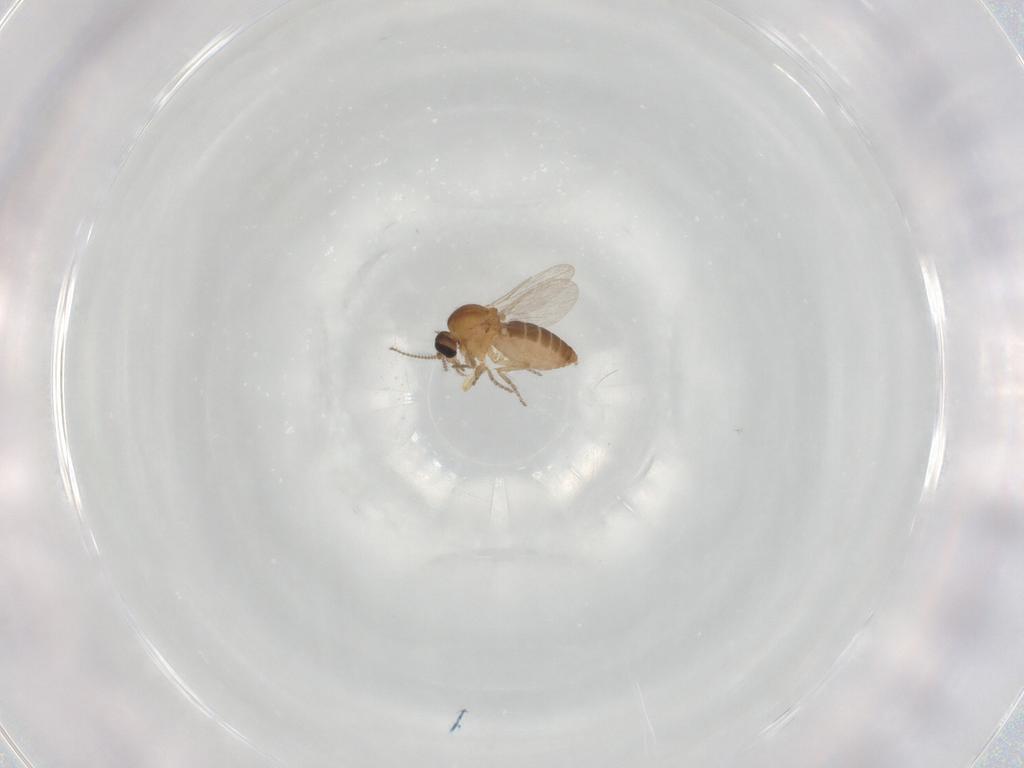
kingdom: Animalia
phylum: Arthropoda
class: Insecta
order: Diptera
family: Ceratopogonidae
